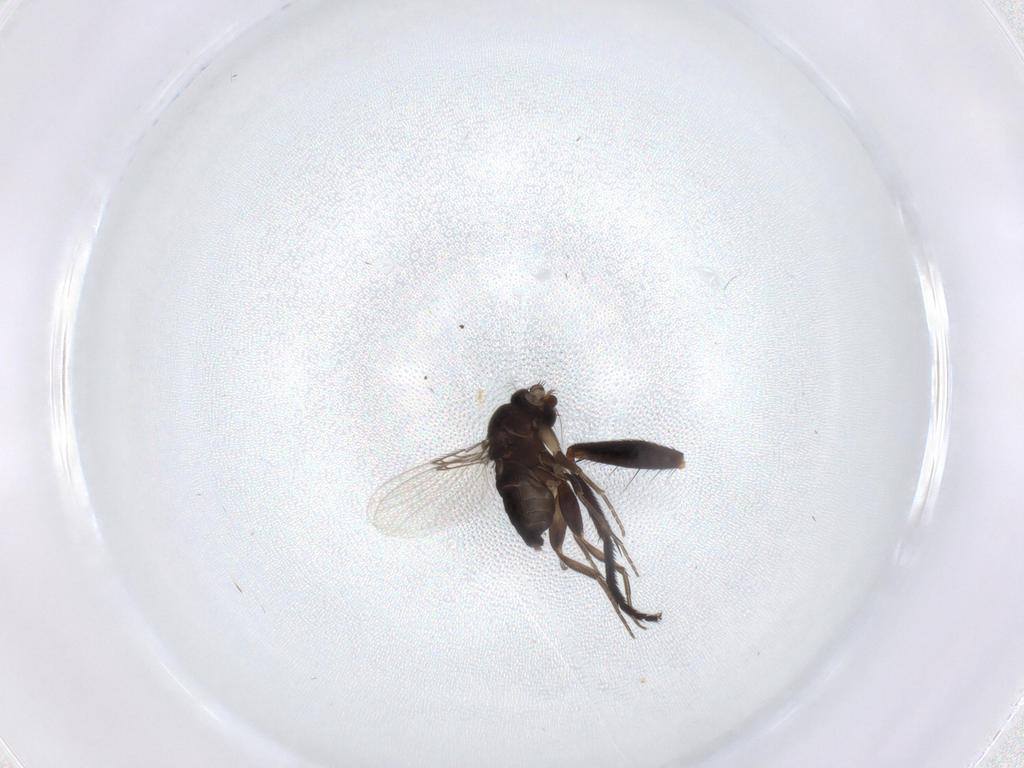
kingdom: Animalia
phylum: Arthropoda
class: Insecta
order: Diptera
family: Phoridae
